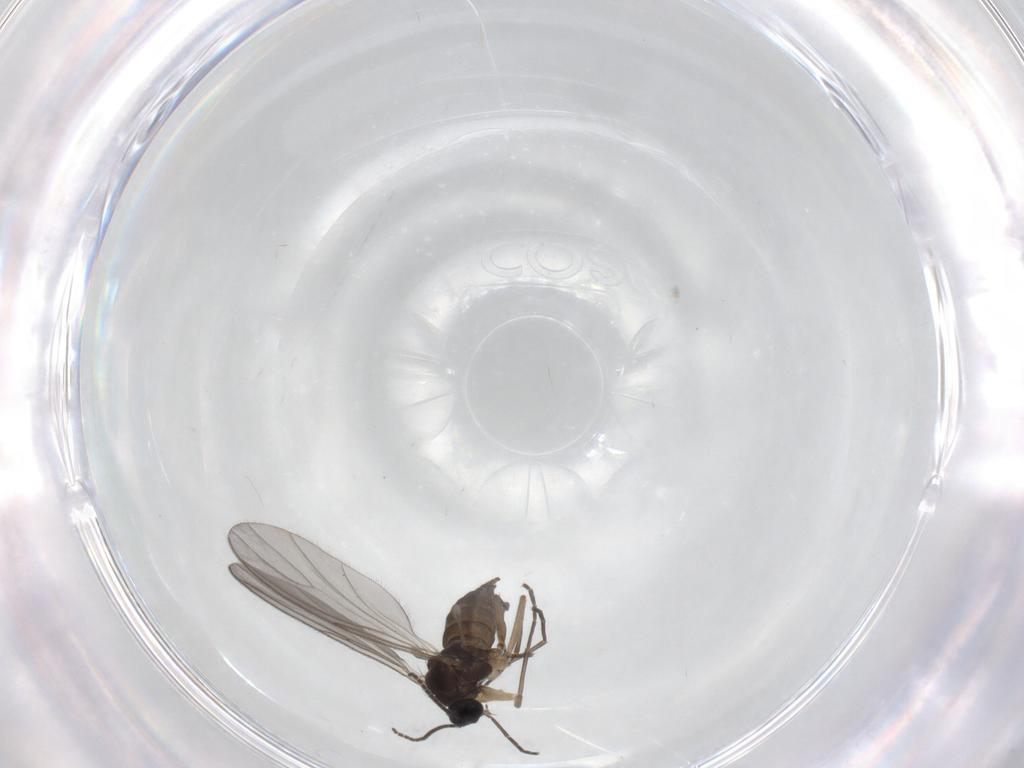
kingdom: Animalia
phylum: Arthropoda
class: Insecta
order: Diptera
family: Sciaridae
